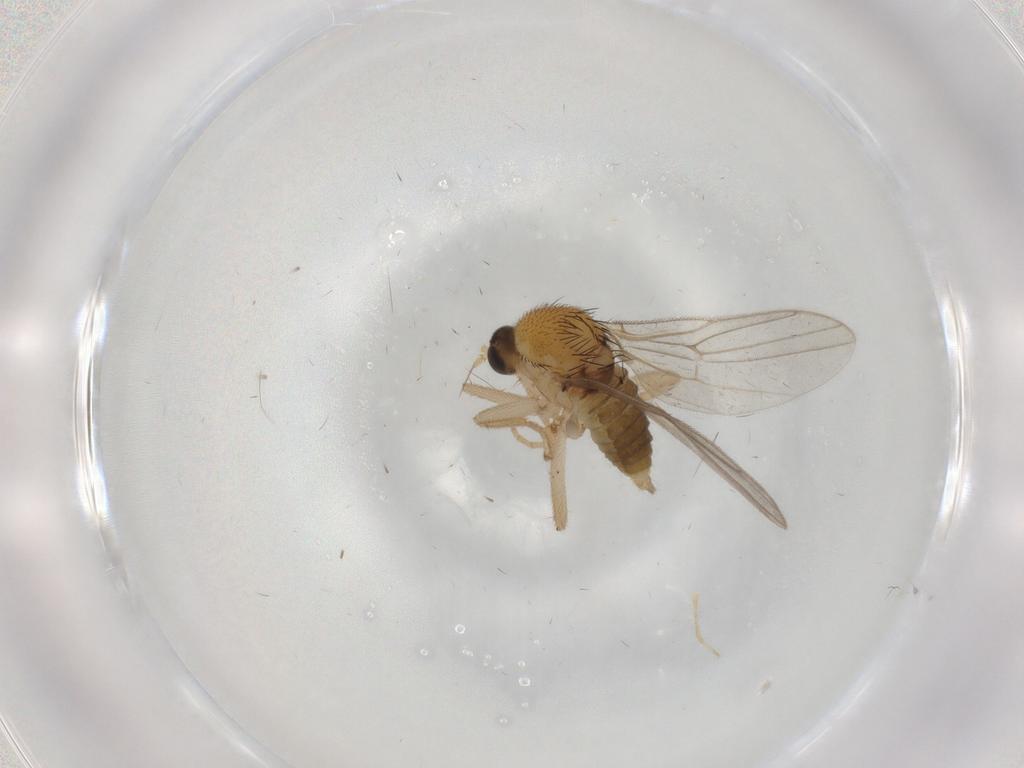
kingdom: Animalia
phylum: Arthropoda
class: Insecta
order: Diptera
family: Hybotidae
